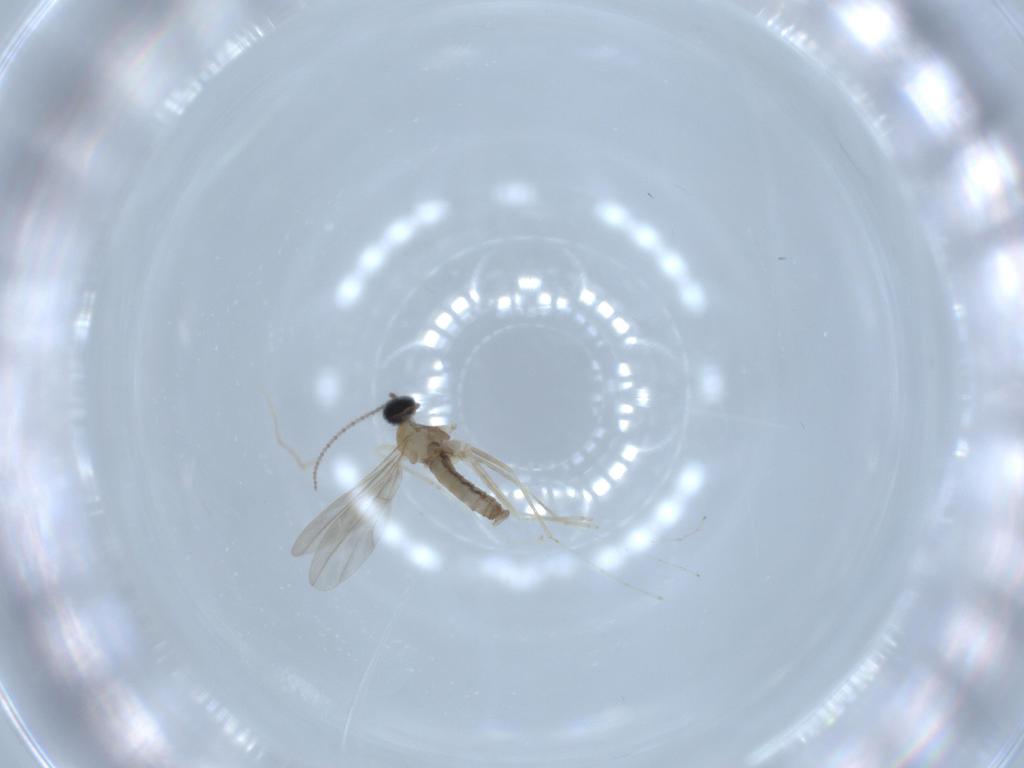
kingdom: Animalia
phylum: Arthropoda
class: Insecta
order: Diptera
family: Cecidomyiidae
